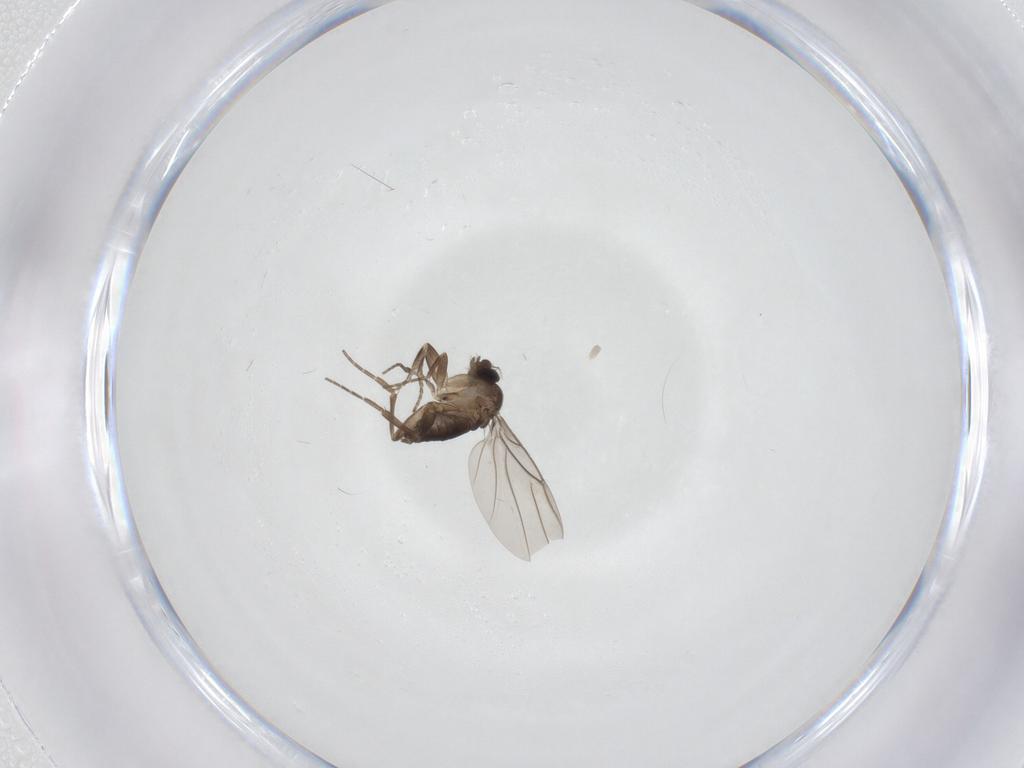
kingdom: Animalia
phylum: Arthropoda
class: Insecta
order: Diptera
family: Psychodidae
